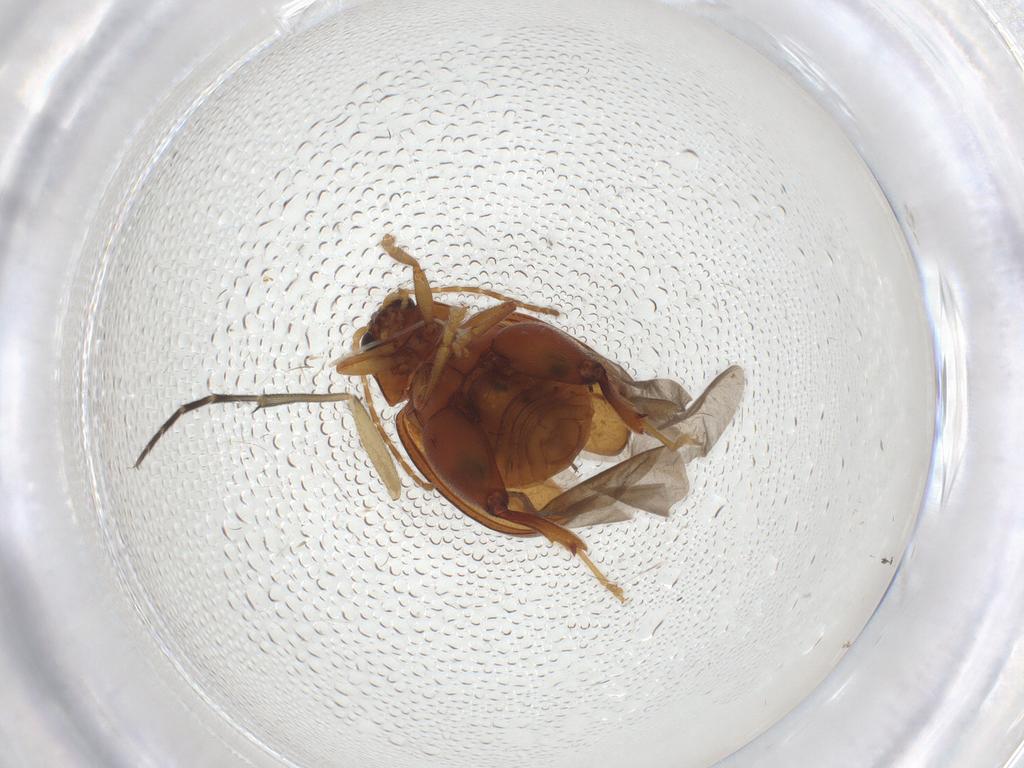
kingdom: Animalia
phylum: Arthropoda
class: Insecta
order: Coleoptera
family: Chrysomelidae
